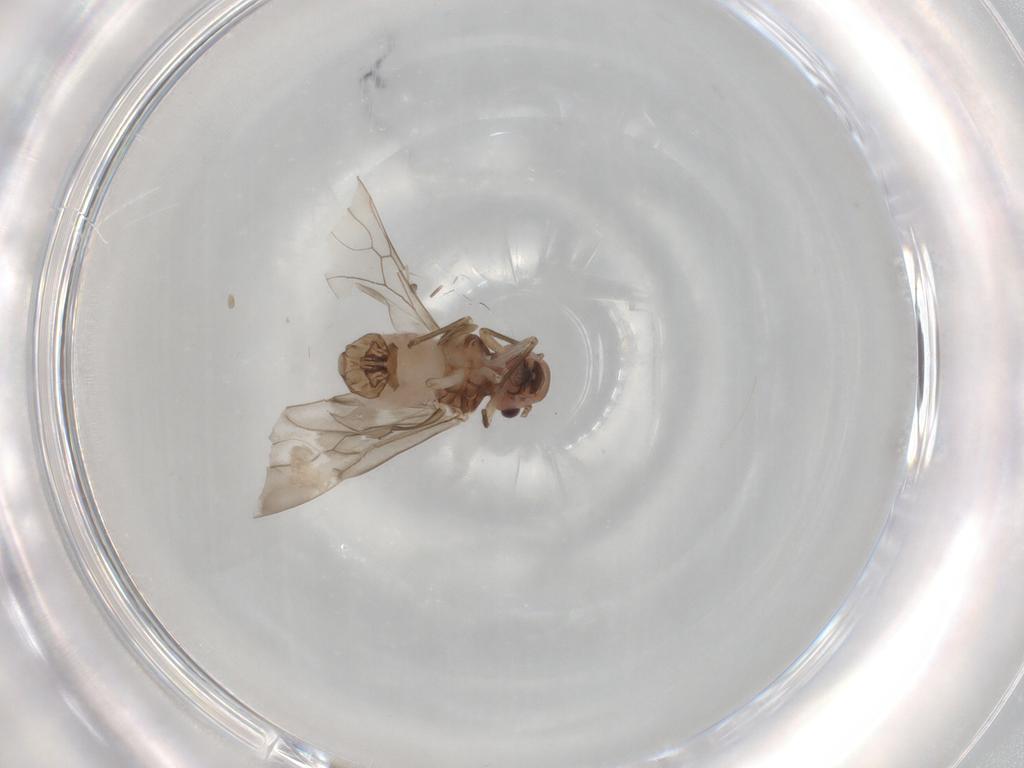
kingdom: Animalia
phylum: Arthropoda
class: Insecta
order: Psocodea
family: Peripsocidae
